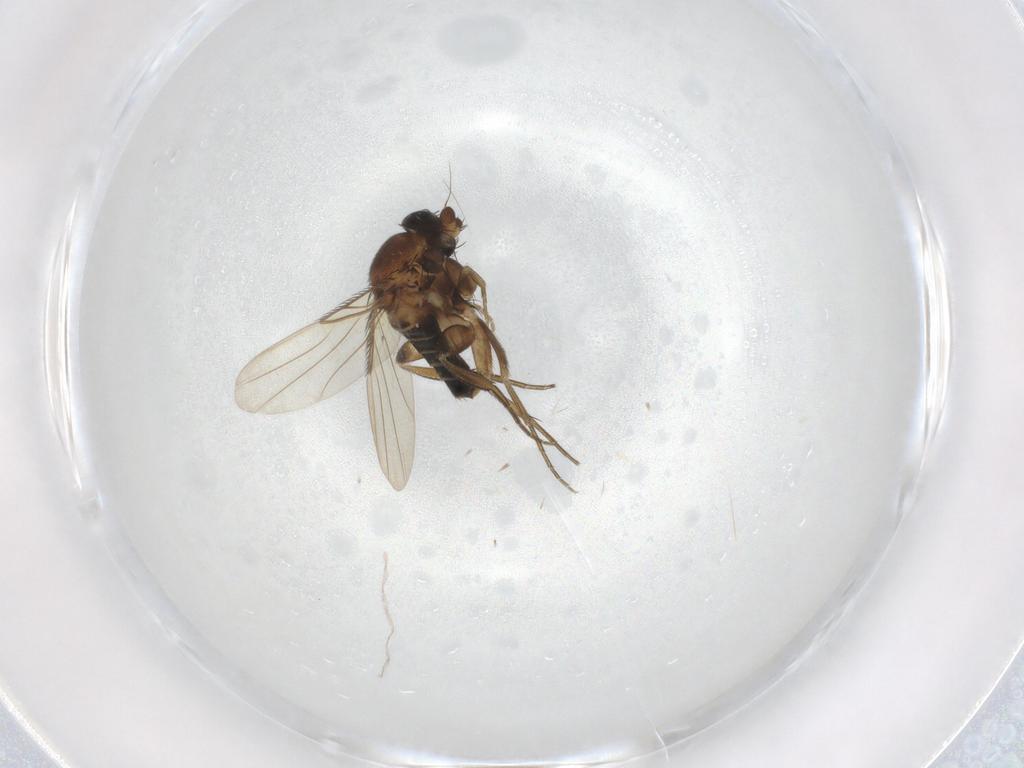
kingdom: Animalia
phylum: Arthropoda
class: Insecta
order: Diptera
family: Phoridae
